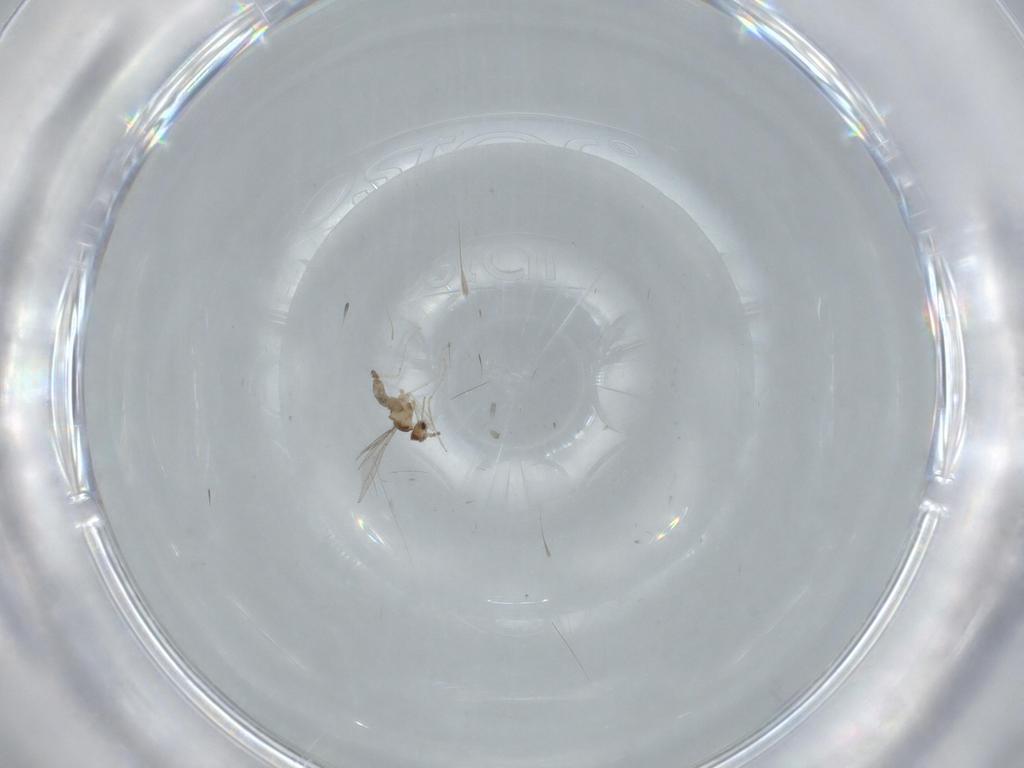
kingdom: Animalia
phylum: Arthropoda
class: Insecta
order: Diptera
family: Cecidomyiidae
